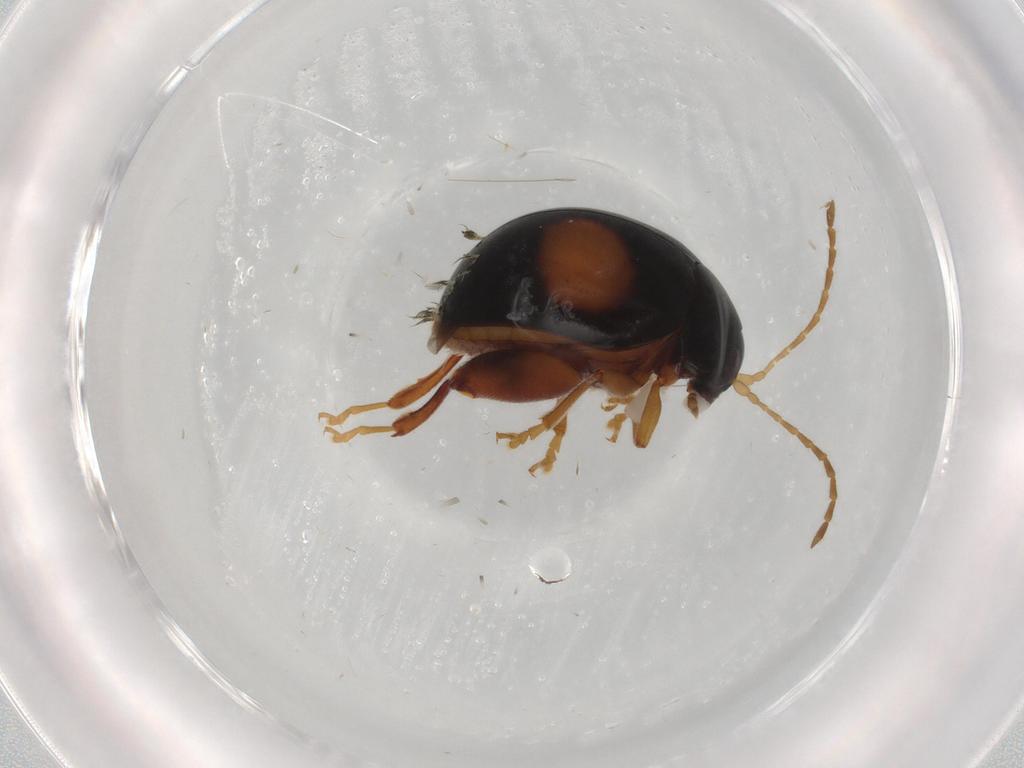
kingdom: Animalia
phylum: Arthropoda
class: Insecta
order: Coleoptera
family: Chrysomelidae
